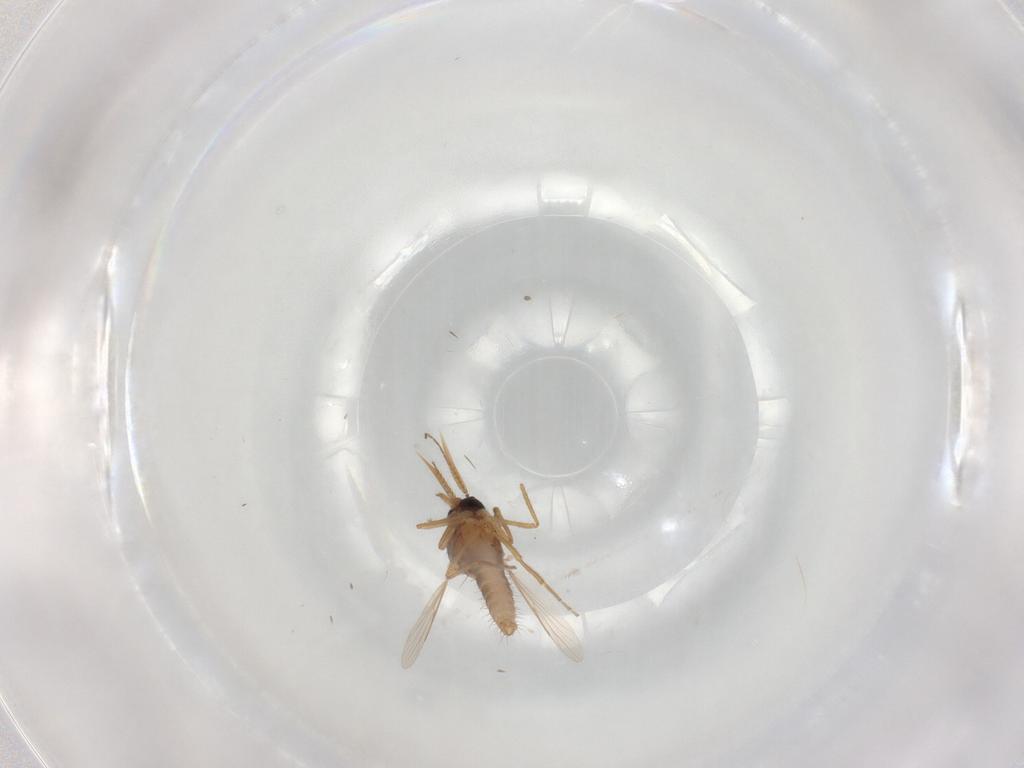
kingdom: Animalia
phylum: Arthropoda
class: Insecta
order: Diptera
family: Ceratopogonidae
